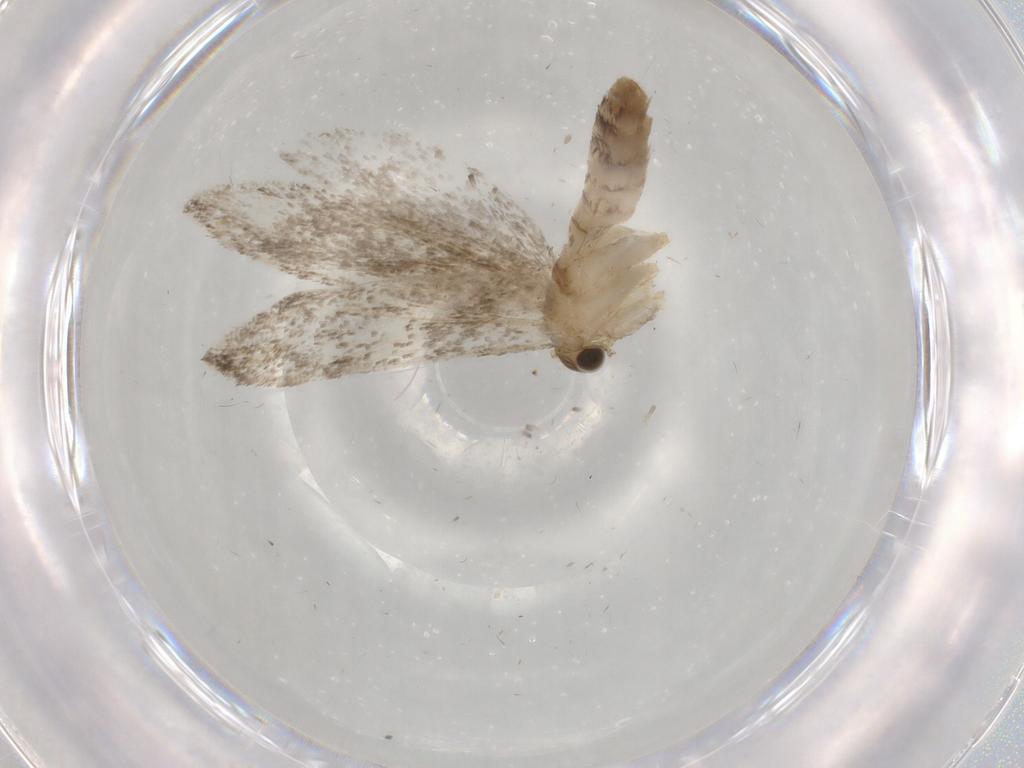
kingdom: Animalia
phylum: Arthropoda
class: Insecta
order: Lepidoptera
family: Tineidae
